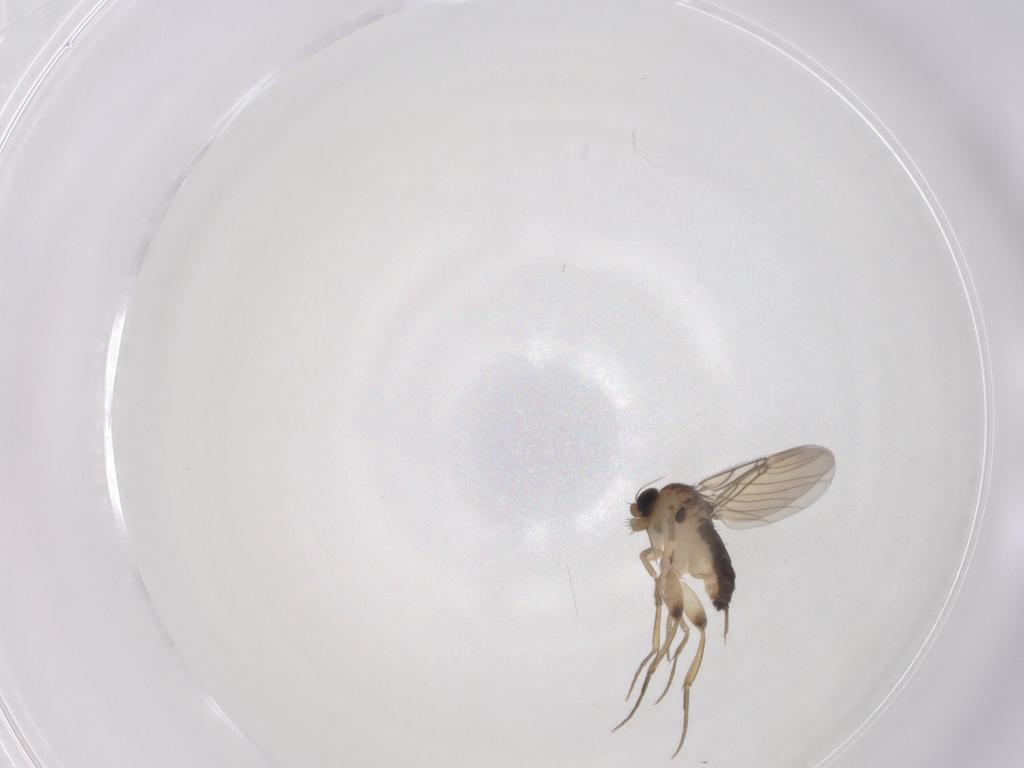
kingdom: Animalia
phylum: Arthropoda
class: Insecta
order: Diptera
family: Phoridae
